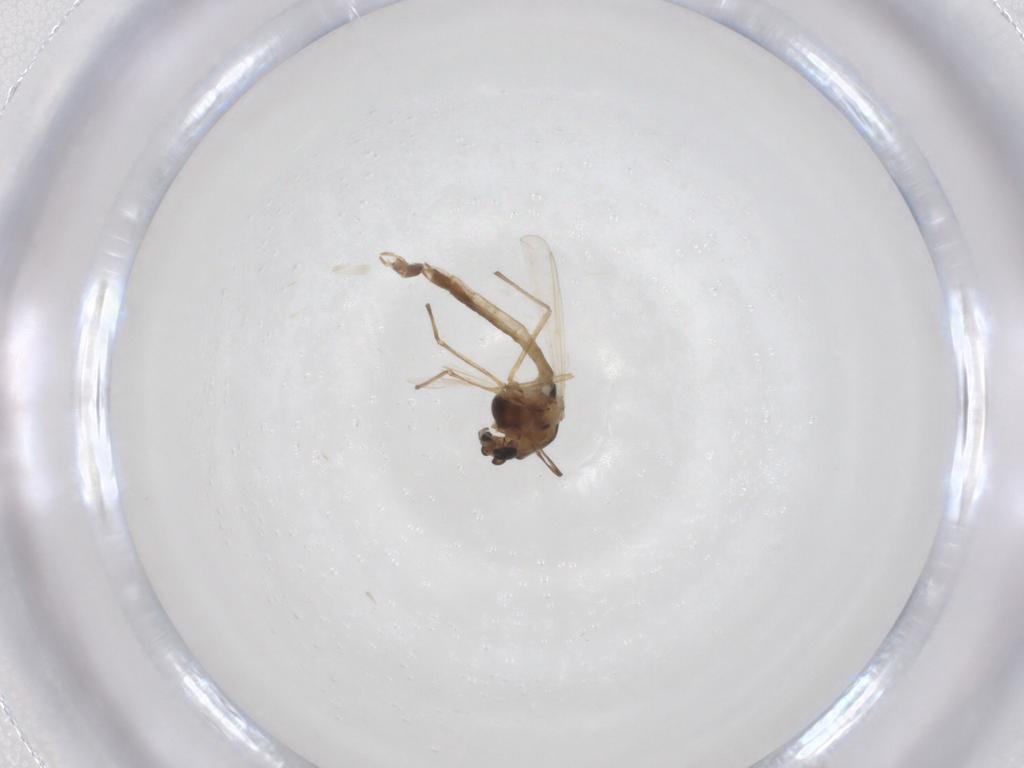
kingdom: Animalia
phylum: Arthropoda
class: Insecta
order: Diptera
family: Chironomidae
